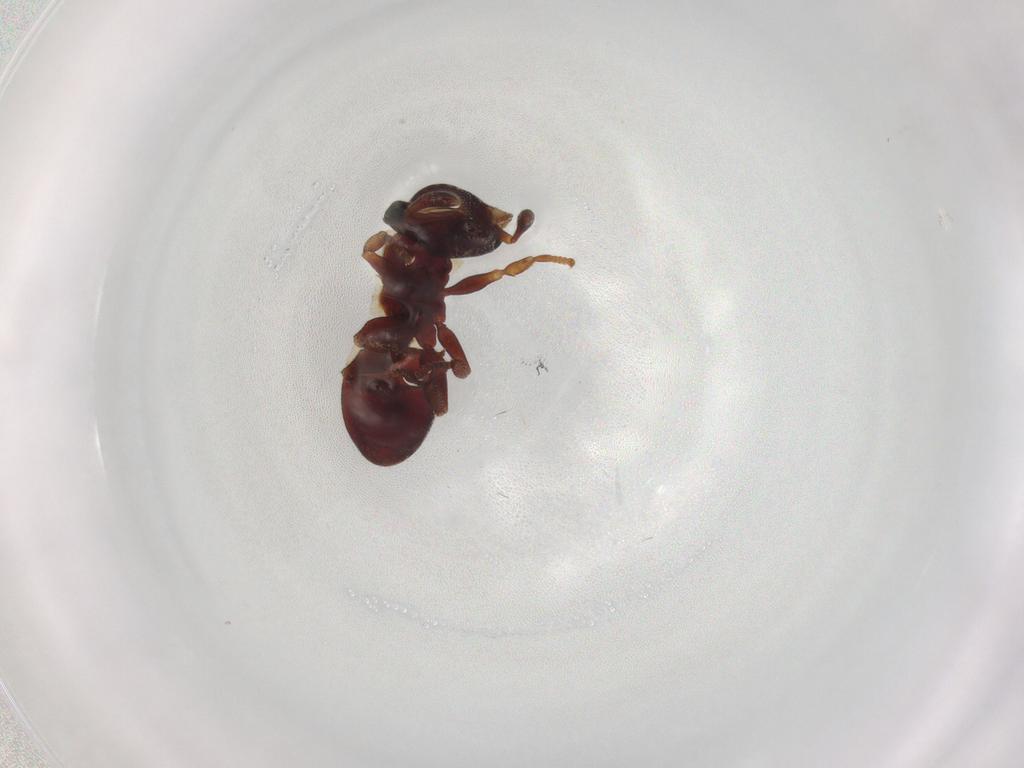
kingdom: Animalia
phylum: Arthropoda
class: Insecta
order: Hymenoptera
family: Formicidae
